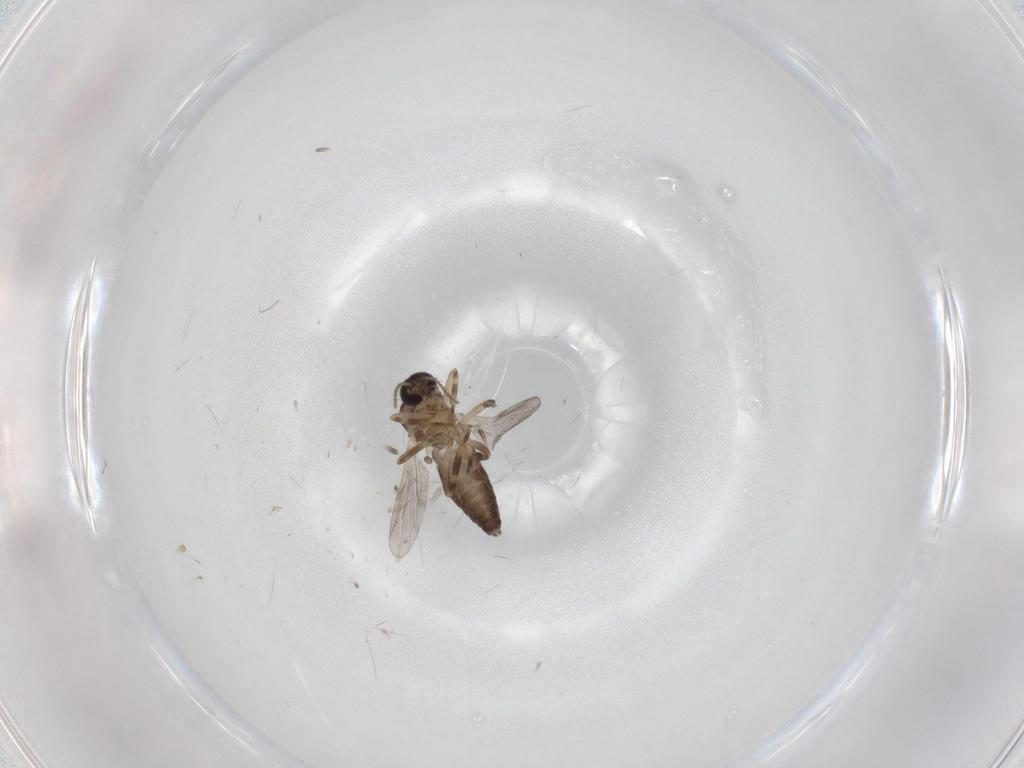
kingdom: Animalia
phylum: Arthropoda
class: Insecta
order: Diptera
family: Ceratopogonidae
